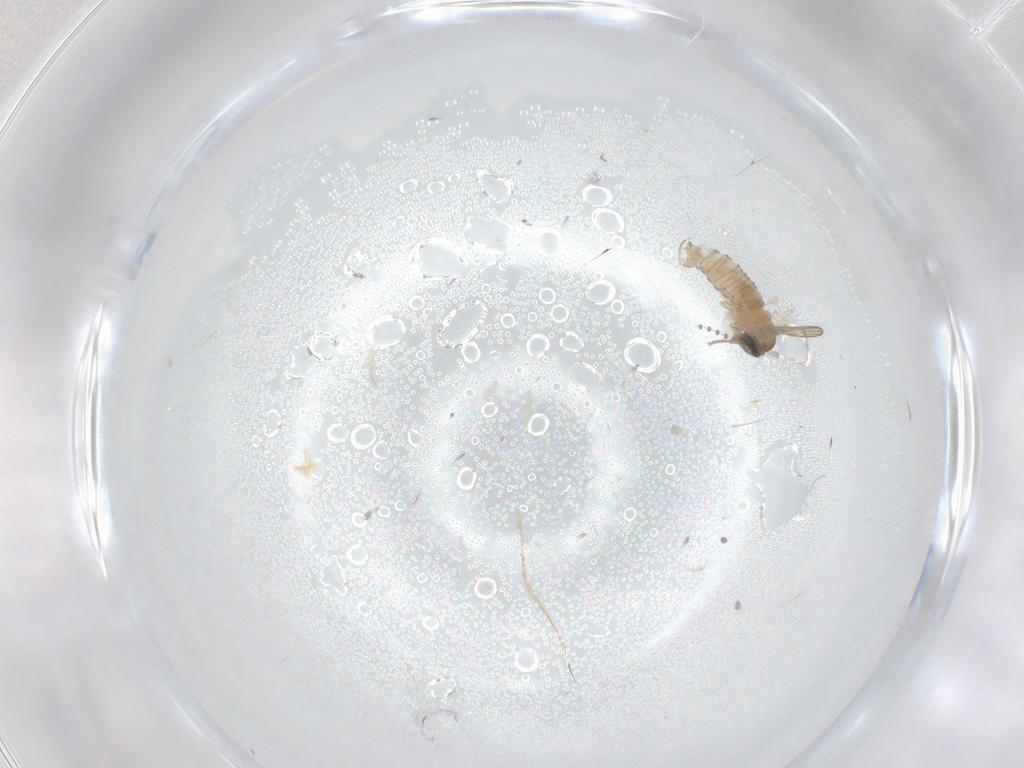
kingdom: Animalia
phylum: Arthropoda
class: Insecta
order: Diptera
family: Psychodidae
